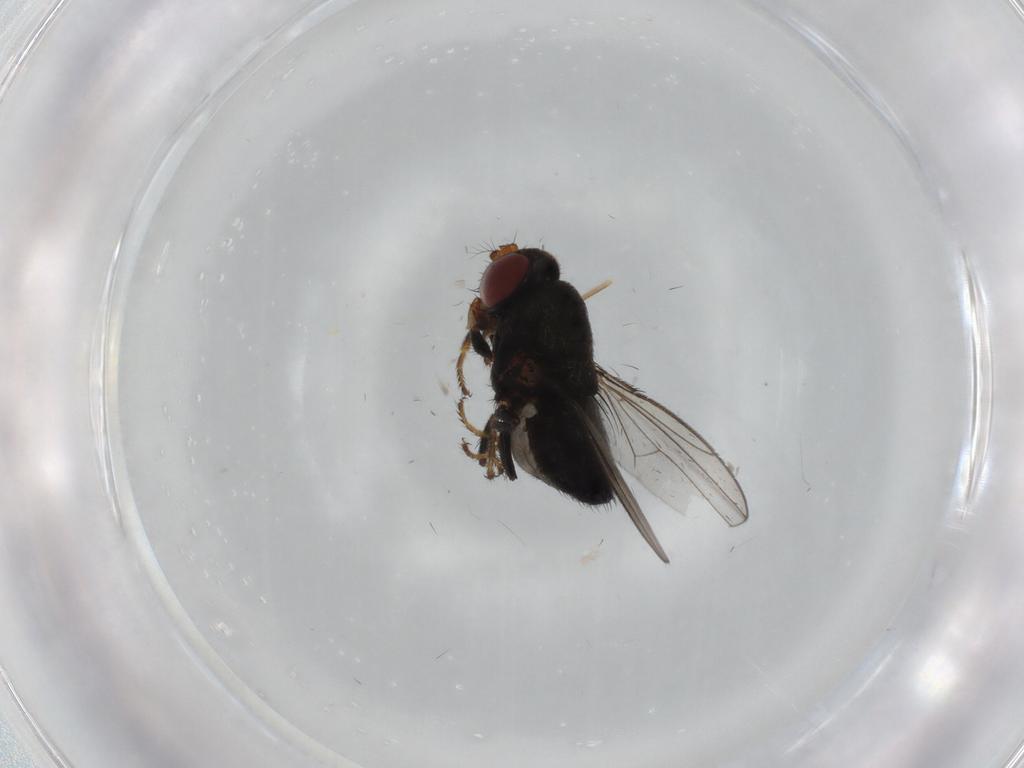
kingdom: Animalia
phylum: Arthropoda
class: Insecta
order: Diptera
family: Ephydridae
